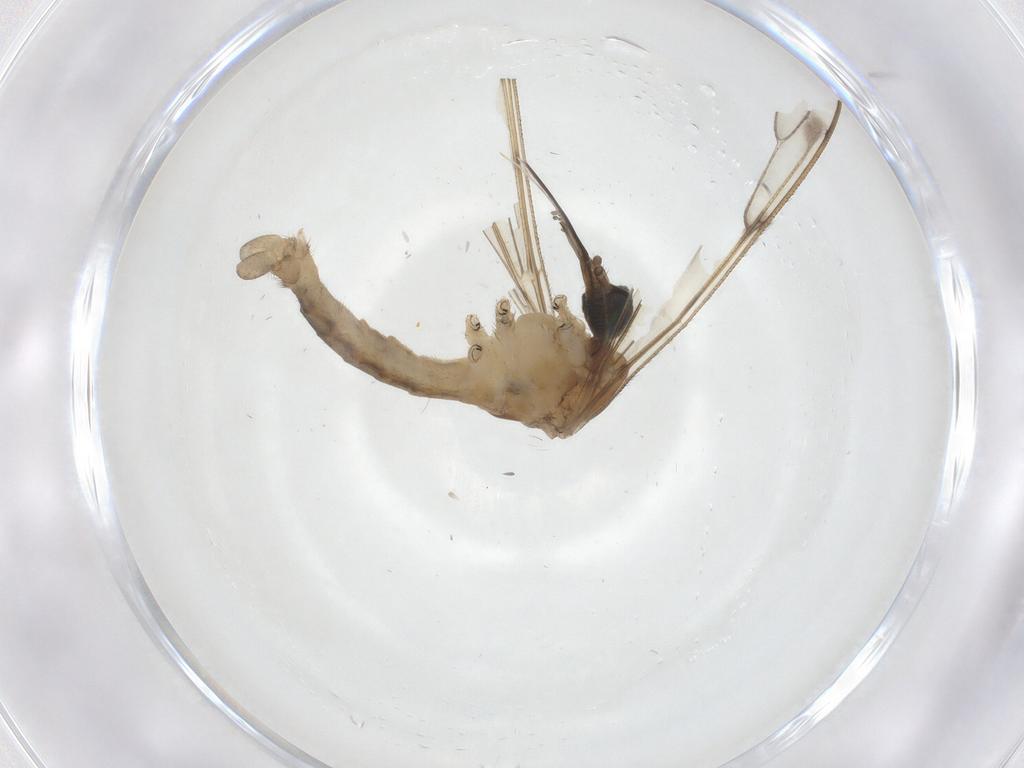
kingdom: Animalia
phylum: Arthropoda
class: Insecta
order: Diptera
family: Limoniidae
